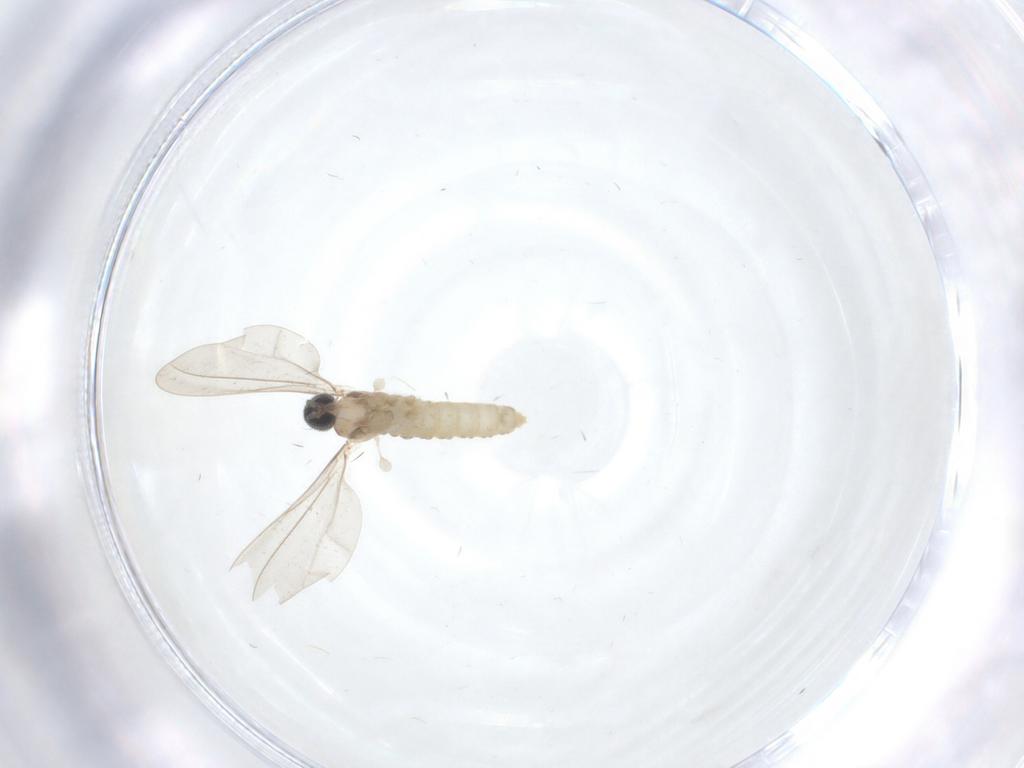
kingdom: Animalia
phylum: Arthropoda
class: Insecta
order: Diptera
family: Cecidomyiidae
